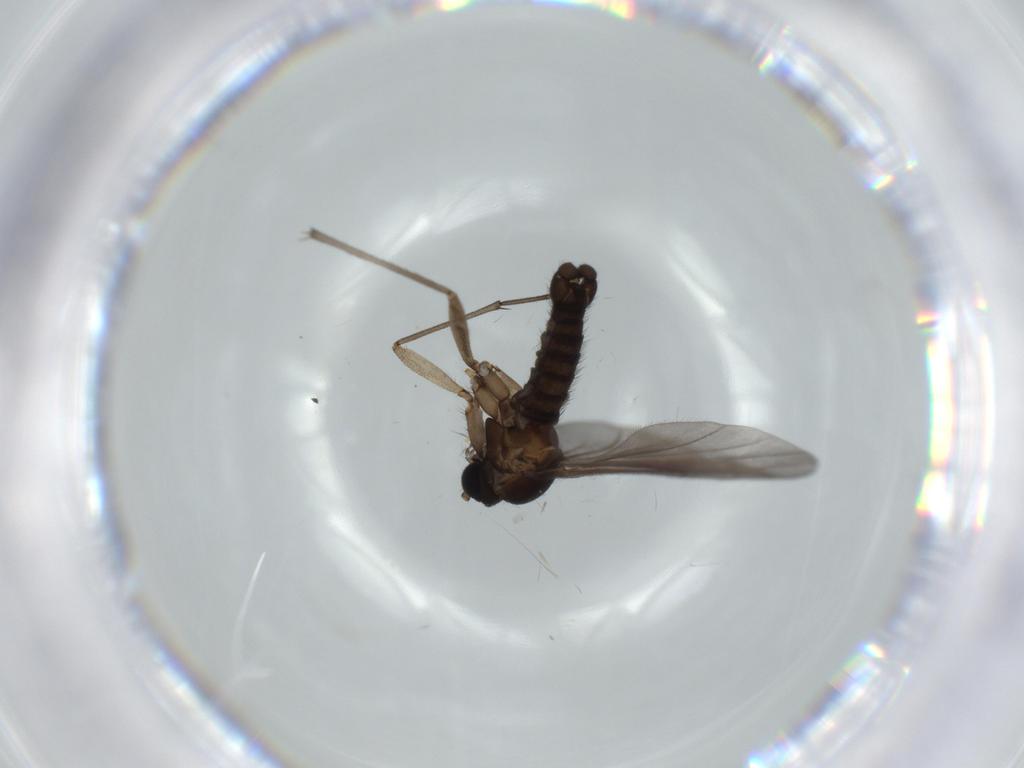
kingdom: Animalia
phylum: Arthropoda
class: Insecta
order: Diptera
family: Sciaridae
